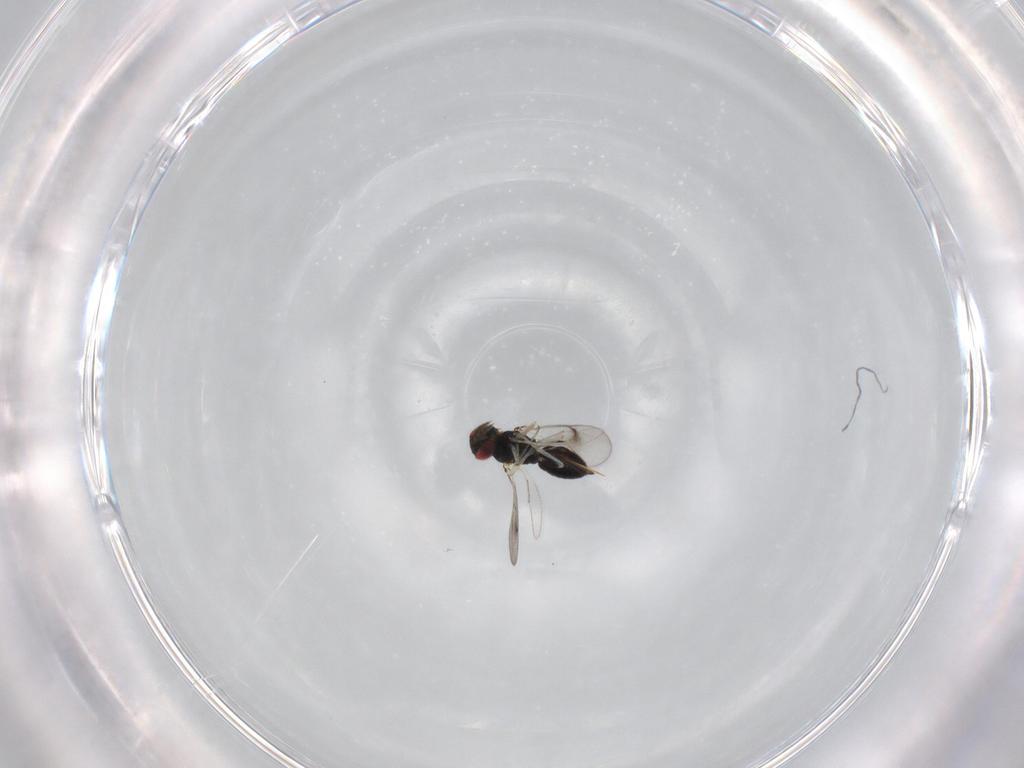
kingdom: Animalia
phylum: Arthropoda
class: Insecta
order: Hymenoptera
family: Eulophidae
